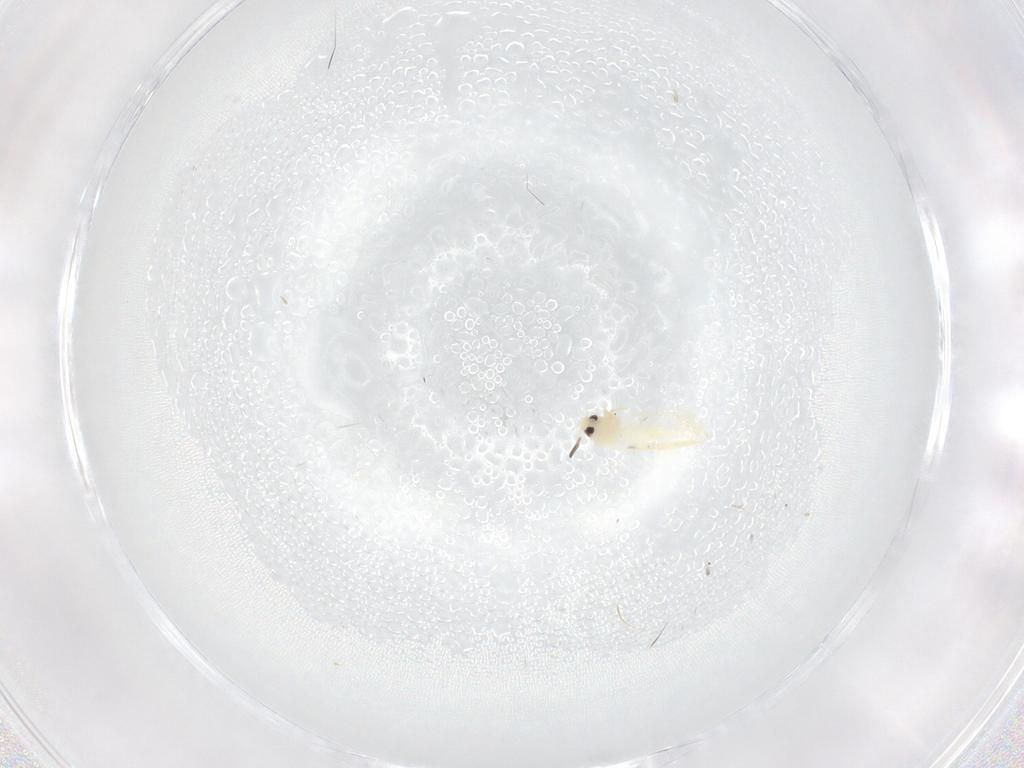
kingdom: Animalia
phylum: Arthropoda
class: Insecta
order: Hemiptera
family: Aleyrodidae
